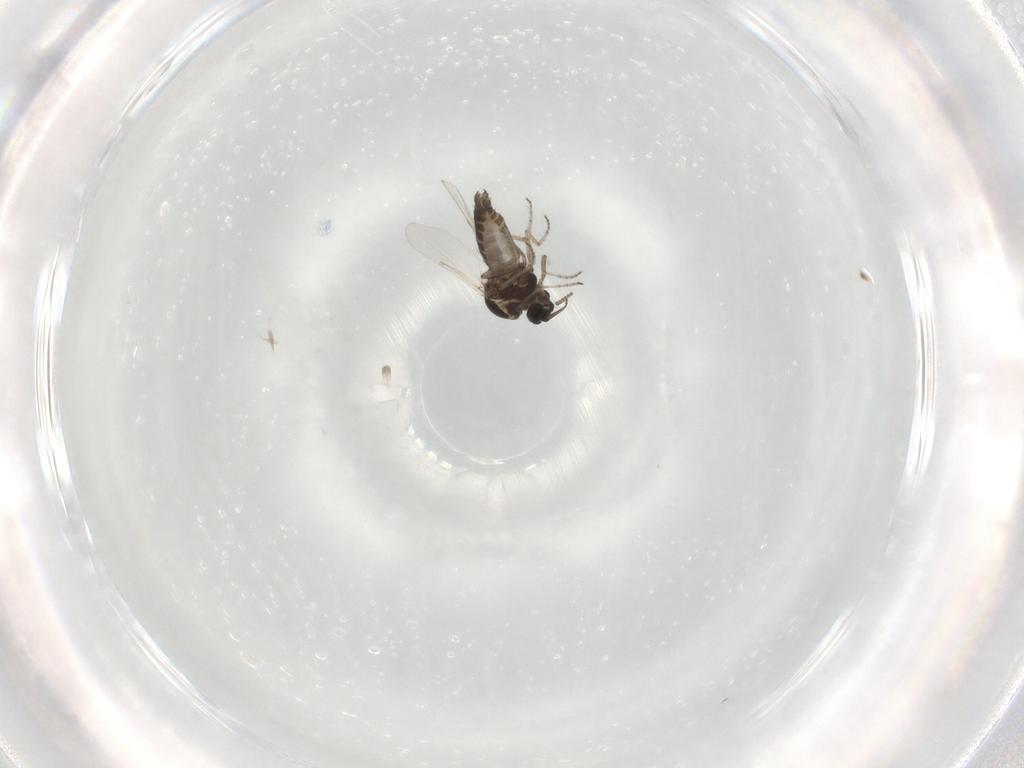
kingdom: Animalia
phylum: Arthropoda
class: Insecta
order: Diptera
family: Ceratopogonidae
